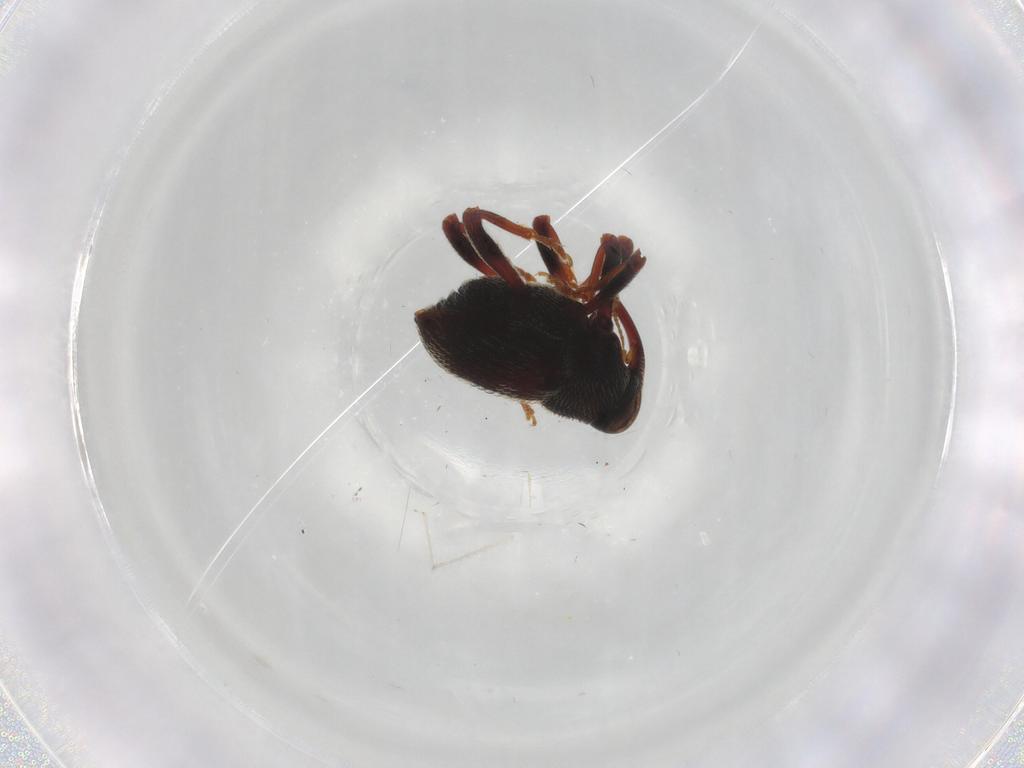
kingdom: Animalia
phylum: Arthropoda
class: Insecta
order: Coleoptera
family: Curculionidae
